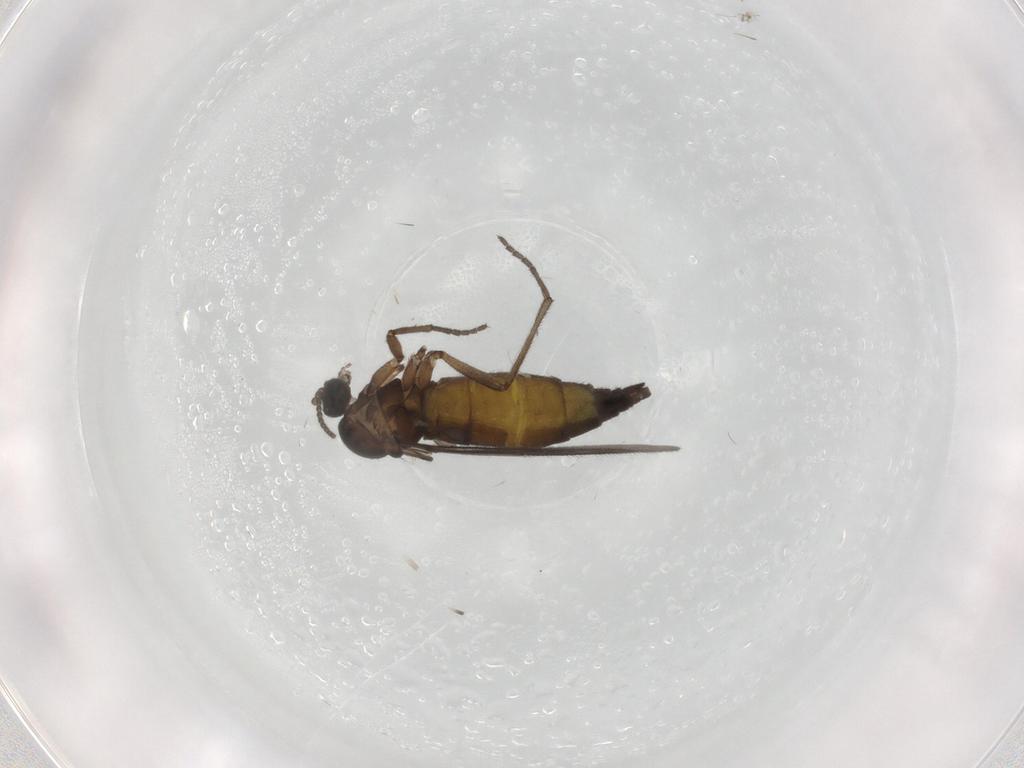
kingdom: Animalia
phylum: Arthropoda
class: Insecta
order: Diptera
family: Sciaridae
